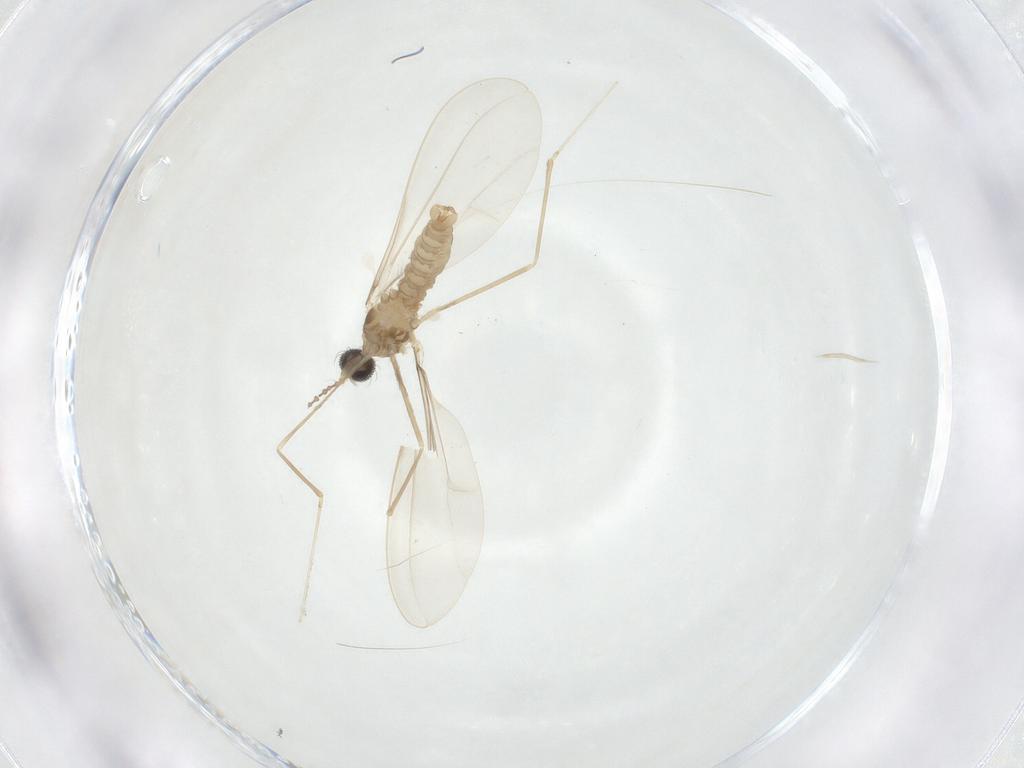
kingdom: Animalia
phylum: Arthropoda
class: Insecta
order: Diptera
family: Cecidomyiidae
